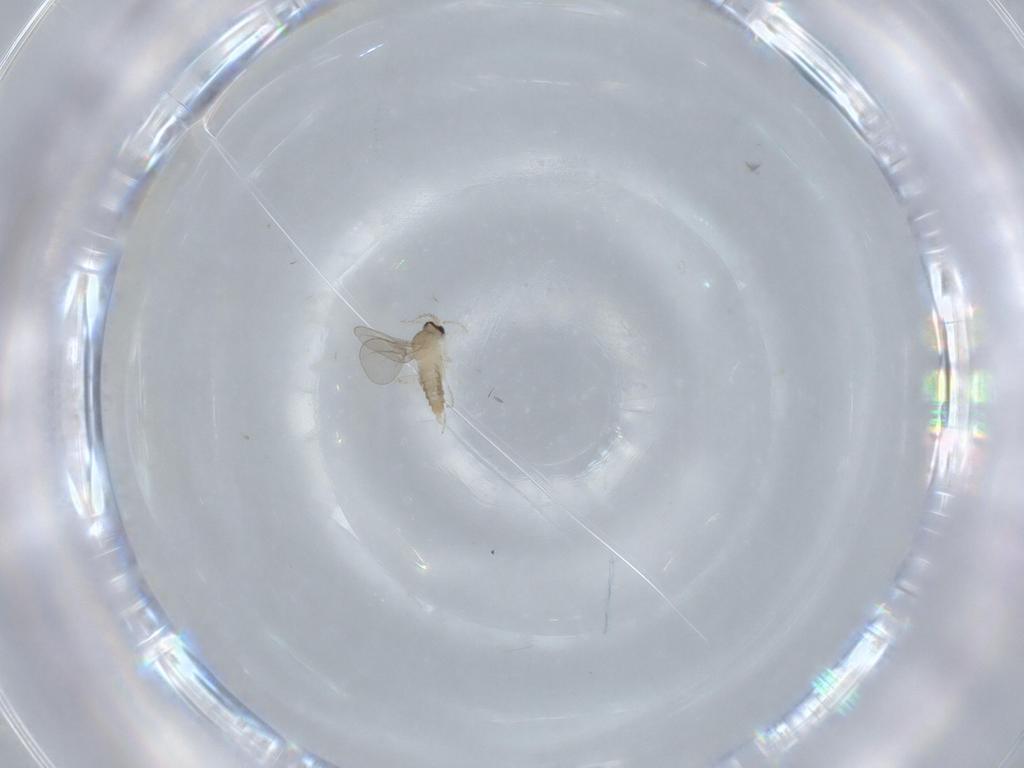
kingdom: Animalia
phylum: Arthropoda
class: Insecta
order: Diptera
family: Cecidomyiidae
